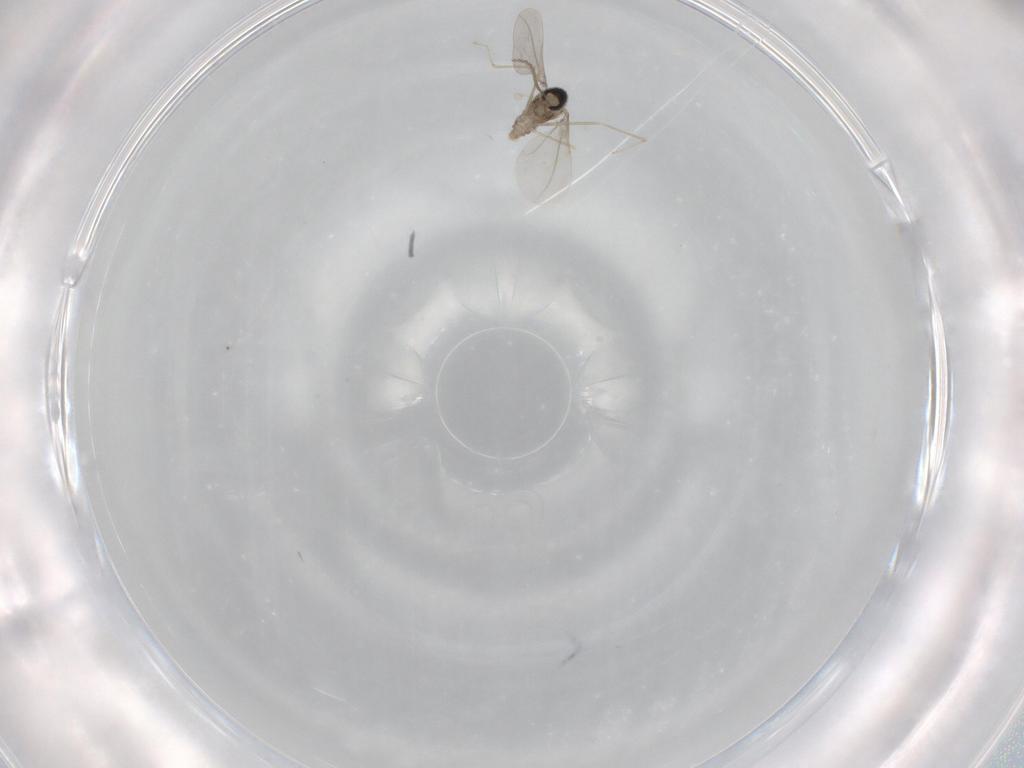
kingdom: Animalia
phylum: Arthropoda
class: Insecta
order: Diptera
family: Cecidomyiidae
